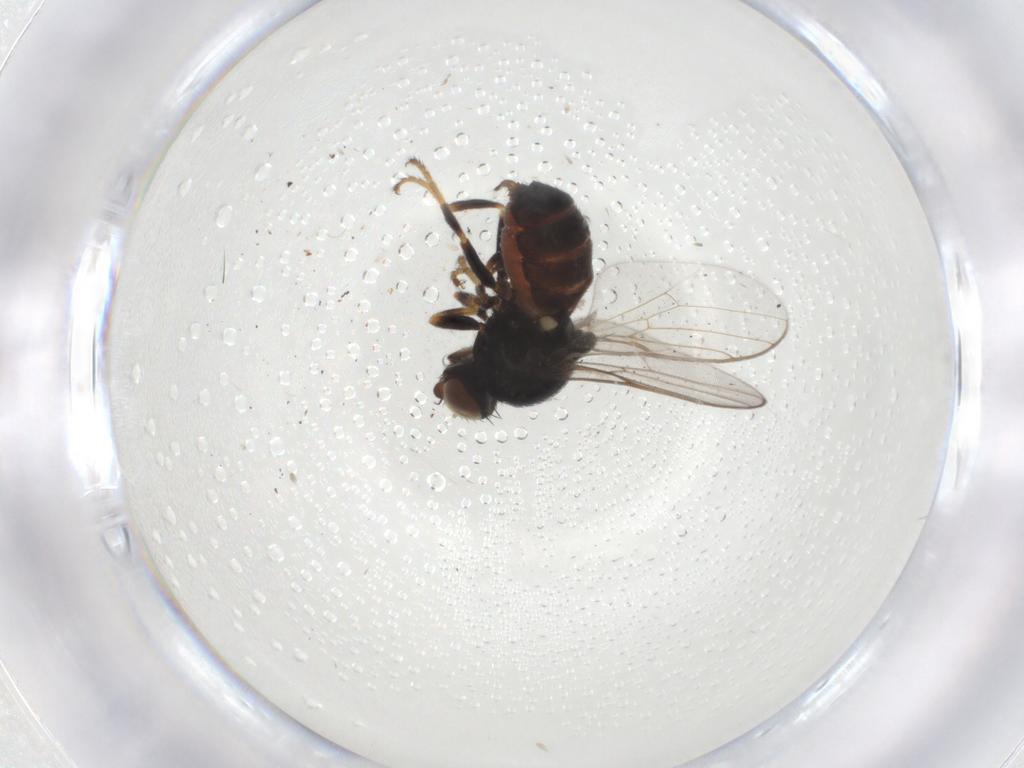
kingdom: Animalia
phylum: Arthropoda
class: Insecta
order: Diptera
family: Chloropidae
